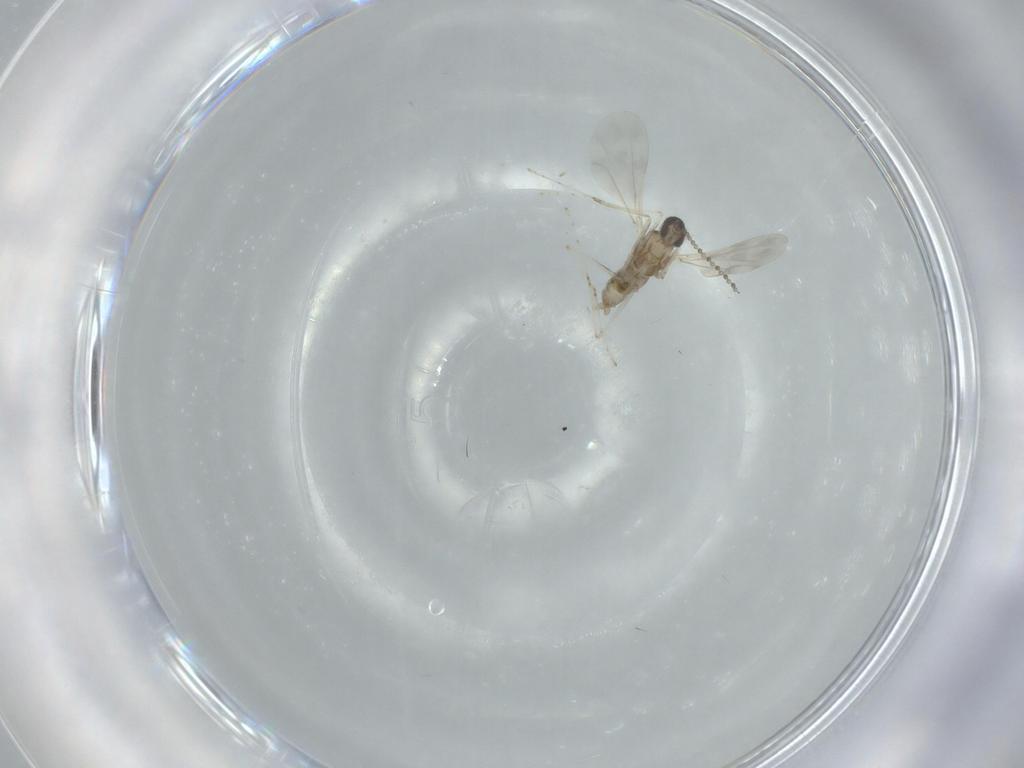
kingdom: Animalia
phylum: Arthropoda
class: Insecta
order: Diptera
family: Cecidomyiidae
